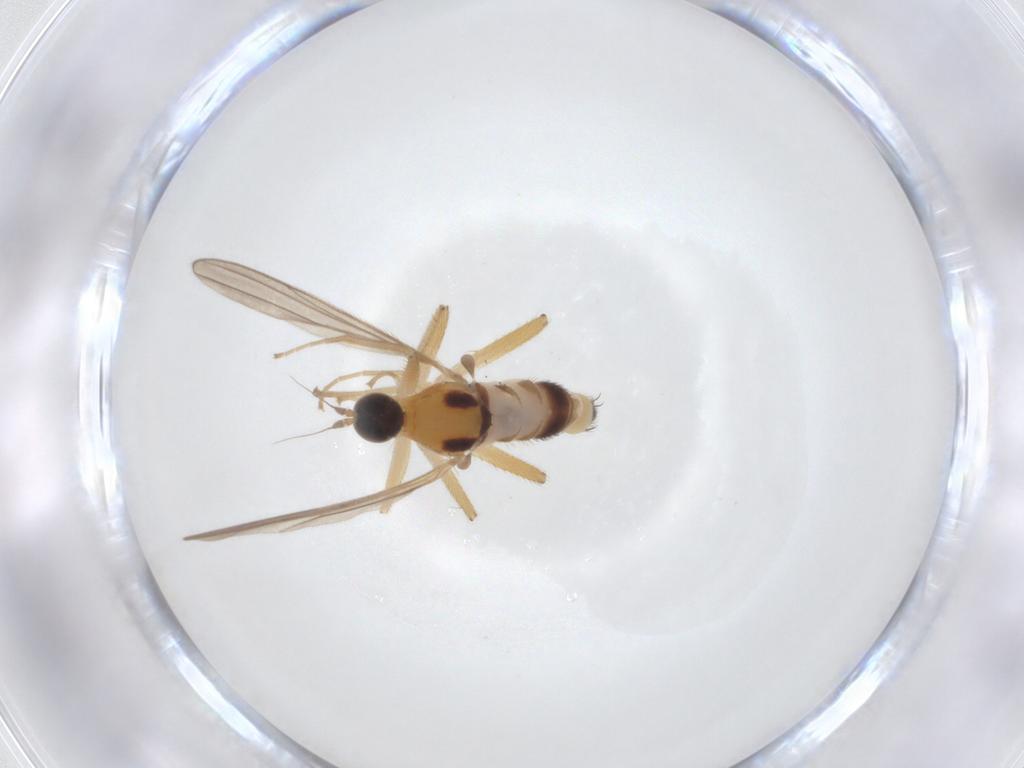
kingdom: Animalia
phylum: Arthropoda
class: Insecta
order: Diptera
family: Hybotidae
